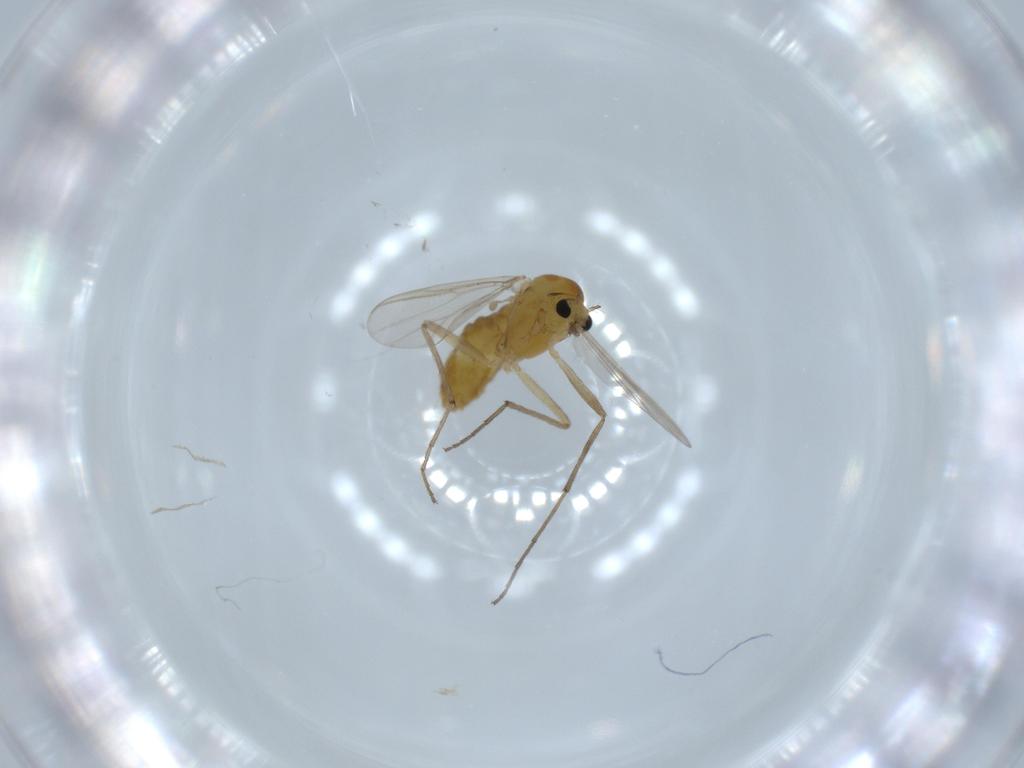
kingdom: Animalia
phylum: Arthropoda
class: Insecta
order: Diptera
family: Chironomidae
